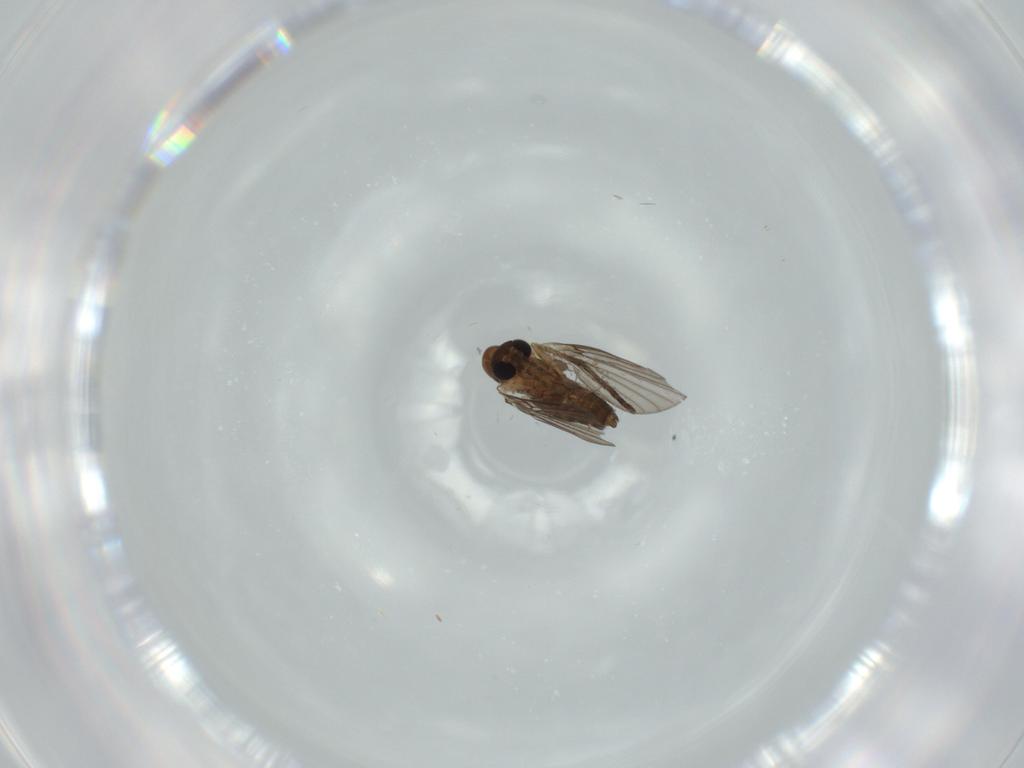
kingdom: Animalia
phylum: Arthropoda
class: Insecta
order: Diptera
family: Psychodidae
